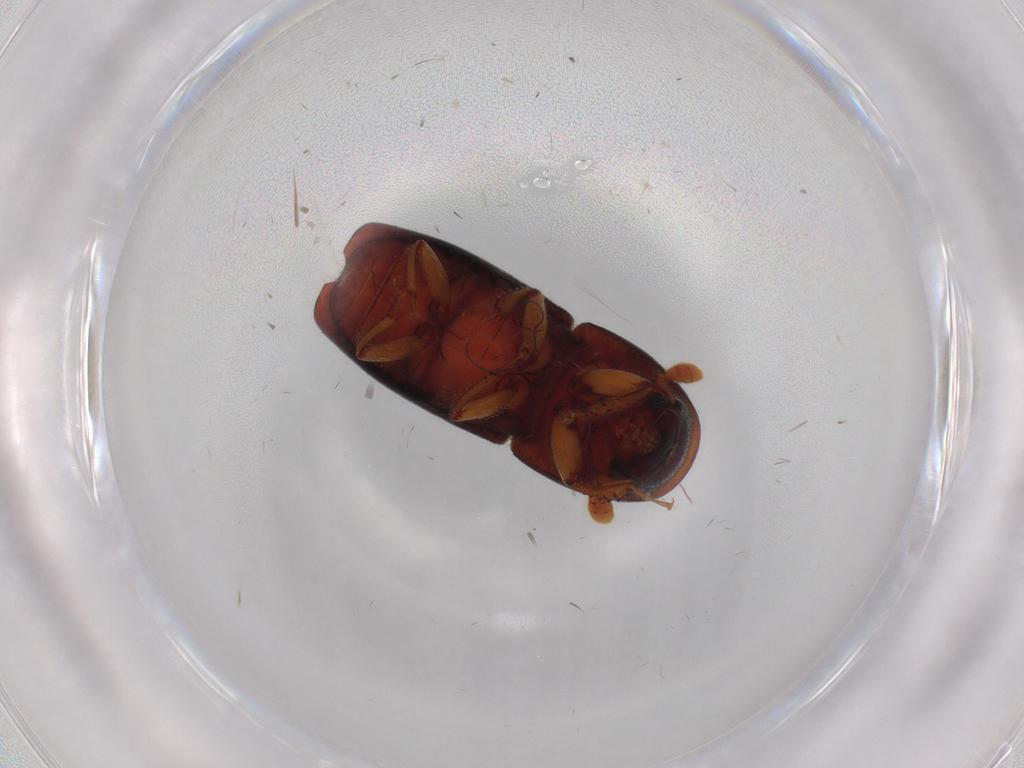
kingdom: Animalia
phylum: Arthropoda
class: Insecta
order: Coleoptera
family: Curculionidae
